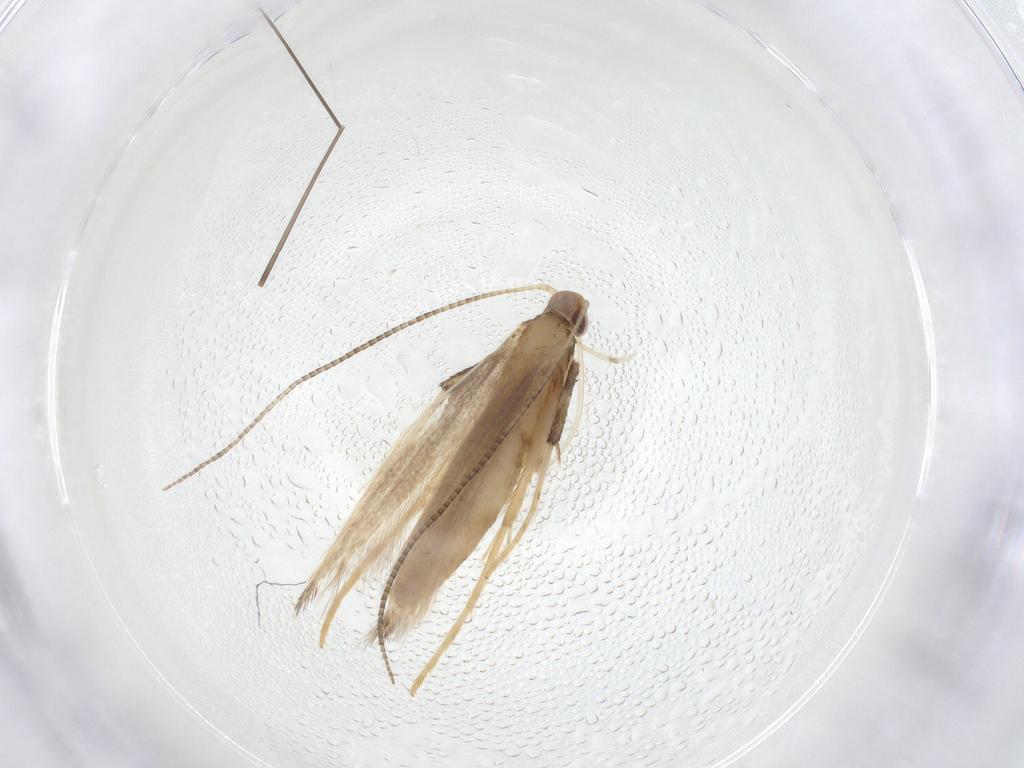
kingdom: Animalia
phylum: Arthropoda
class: Insecta
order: Lepidoptera
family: Gracillariidae
